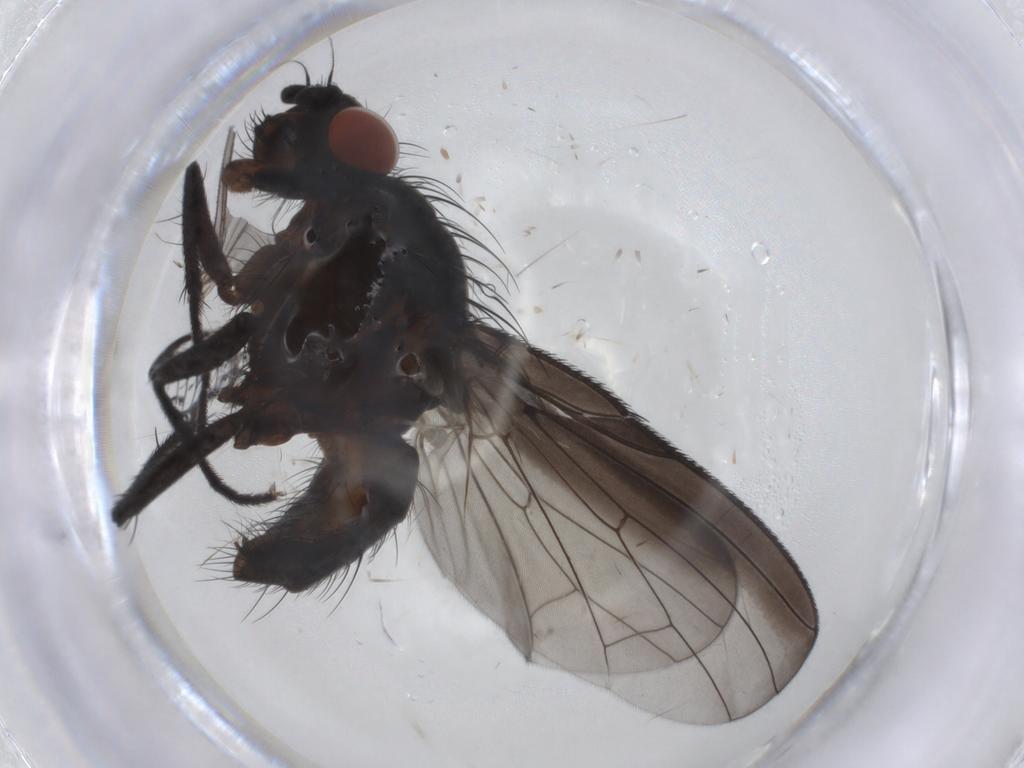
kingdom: Animalia
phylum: Arthropoda
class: Insecta
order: Diptera
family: Anthomyiidae
